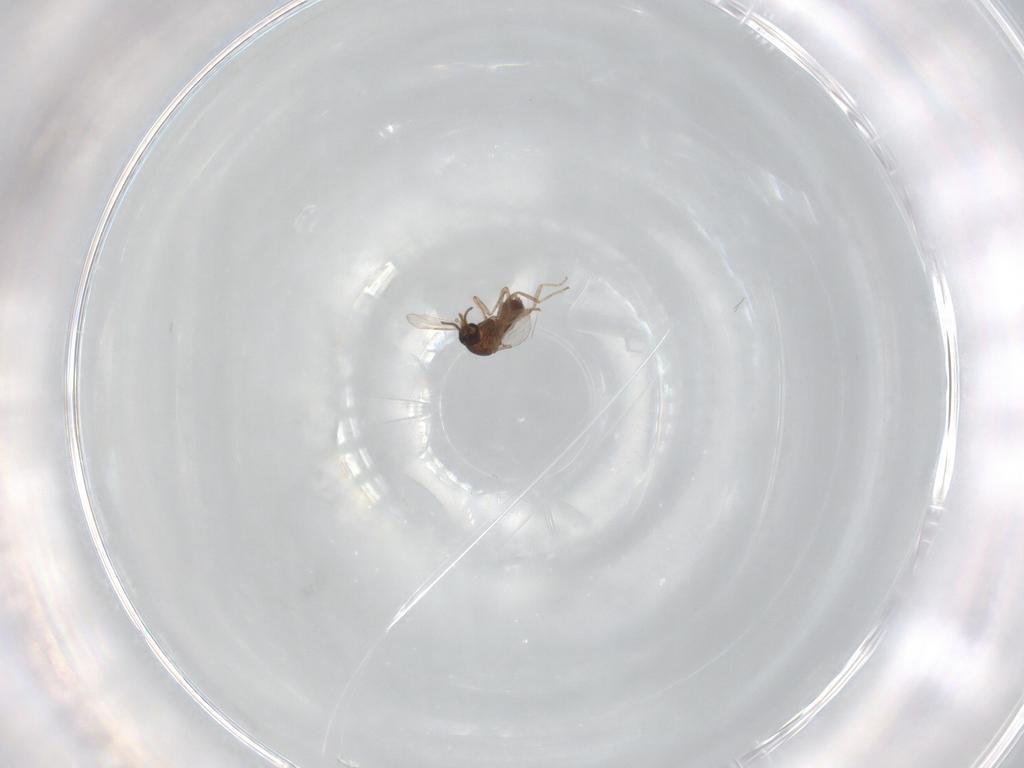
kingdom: Animalia
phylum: Arthropoda
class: Insecta
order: Diptera
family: Ceratopogonidae
